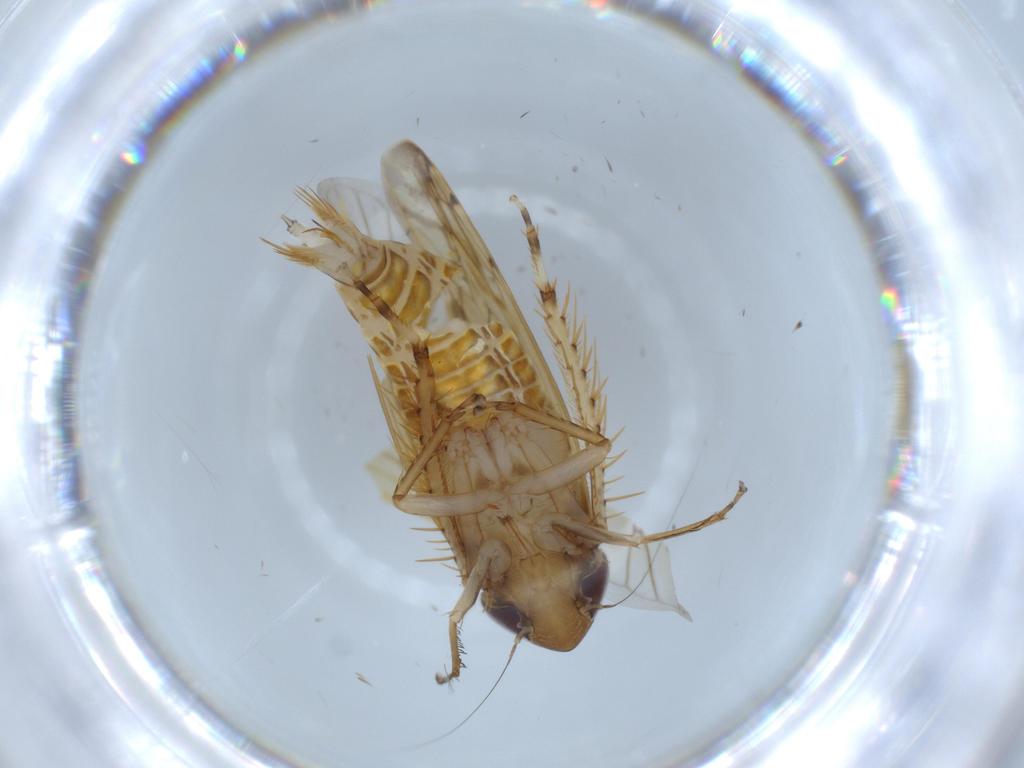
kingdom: Animalia
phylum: Arthropoda
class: Insecta
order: Hemiptera
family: Cicadellidae
